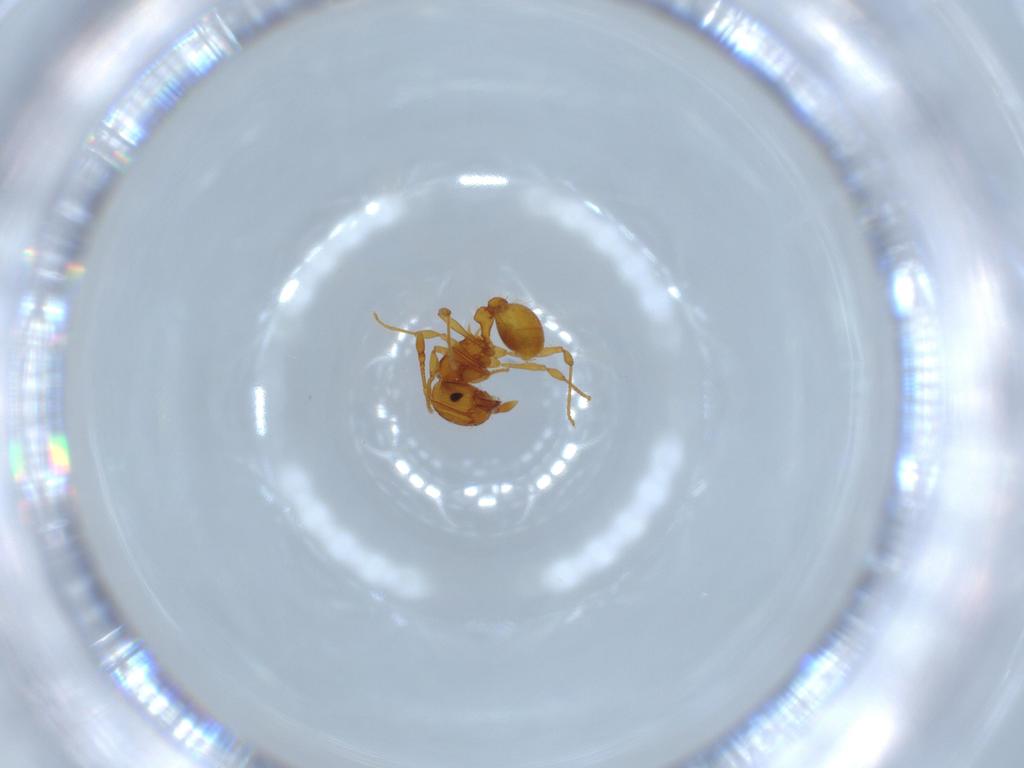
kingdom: Animalia
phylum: Arthropoda
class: Insecta
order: Hymenoptera
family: Formicidae
